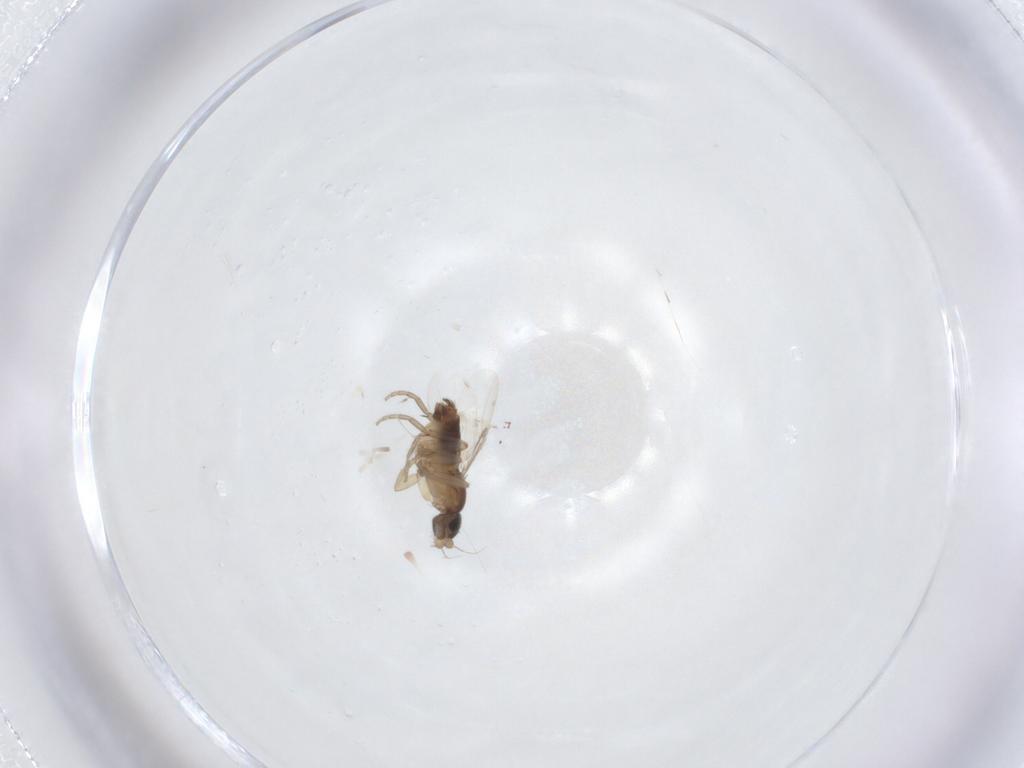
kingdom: Animalia
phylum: Arthropoda
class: Insecta
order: Diptera
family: Phoridae
